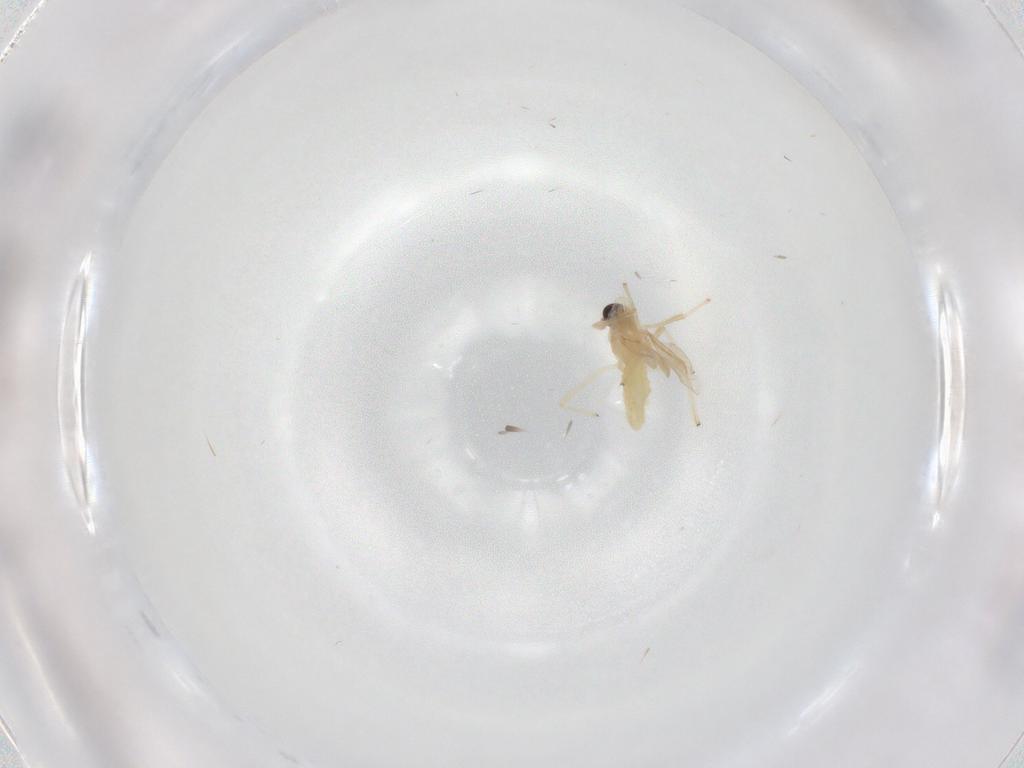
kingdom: Animalia
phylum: Arthropoda
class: Insecta
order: Diptera
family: Chironomidae
